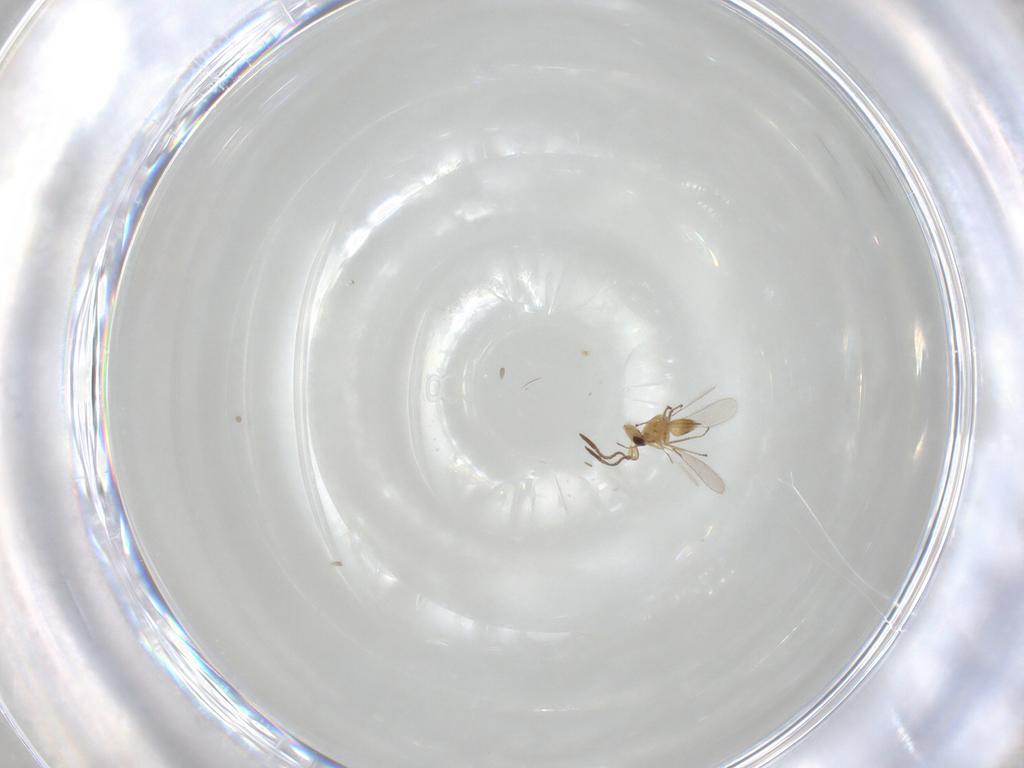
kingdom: Animalia
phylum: Arthropoda
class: Insecta
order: Hymenoptera
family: Mymaridae
